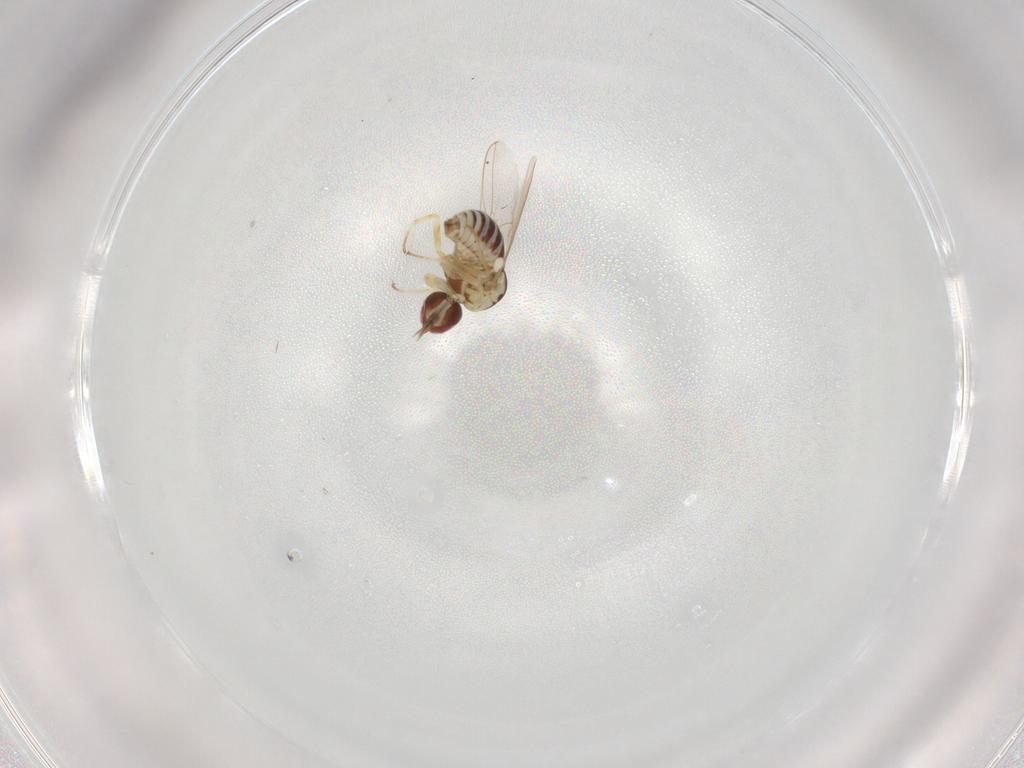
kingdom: Animalia
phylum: Arthropoda
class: Insecta
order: Diptera
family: Bombyliidae
